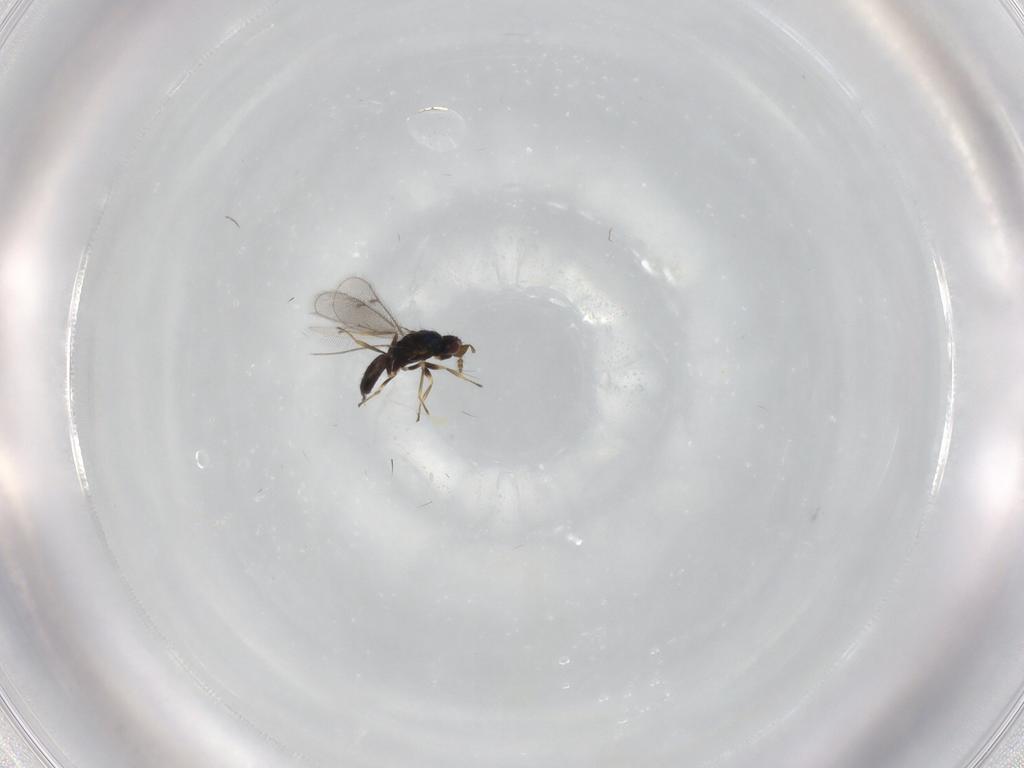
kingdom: Animalia
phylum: Arthropoda
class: Insecta
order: Hymenoptera
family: Eulophidae
